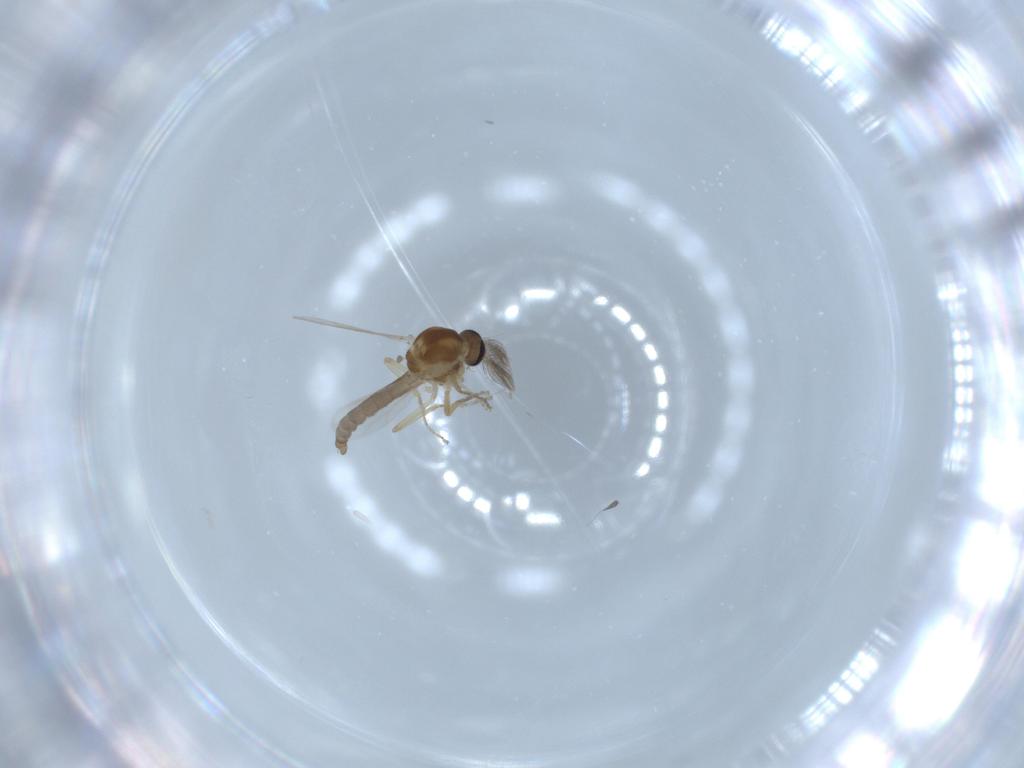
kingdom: Animalia
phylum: Arthropoda
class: Insecta
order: Diptera
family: Ceratopogonidae
